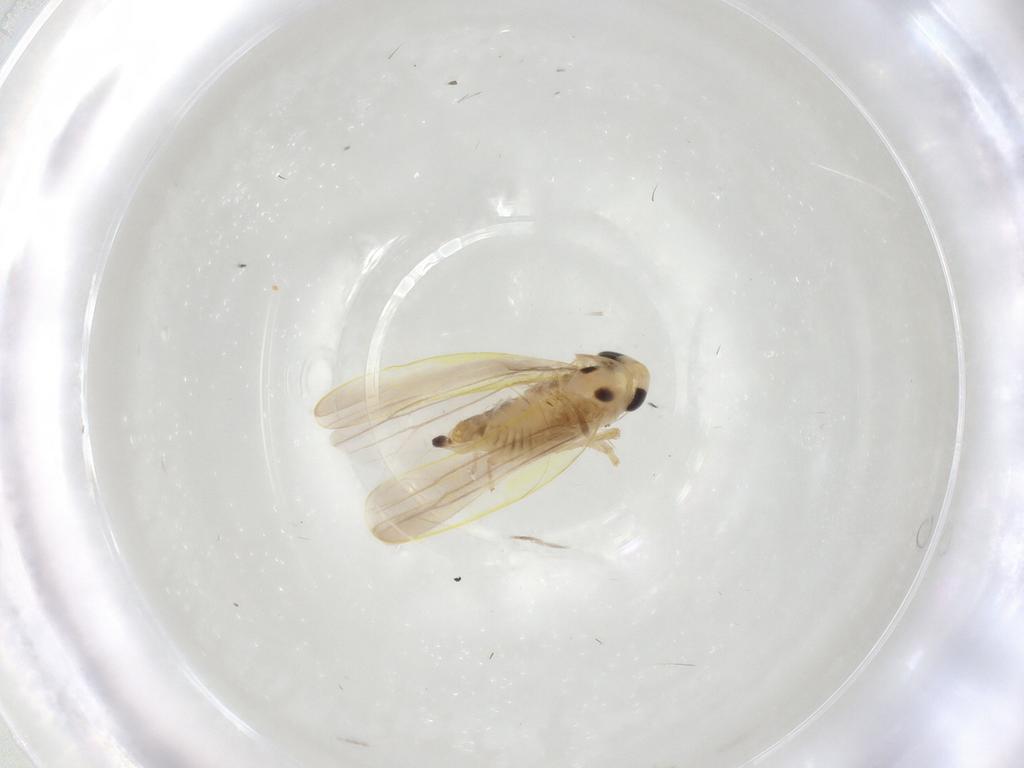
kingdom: Animalia
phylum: Arthropoda
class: Insecta
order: Hemiptera
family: Cicadellidae
